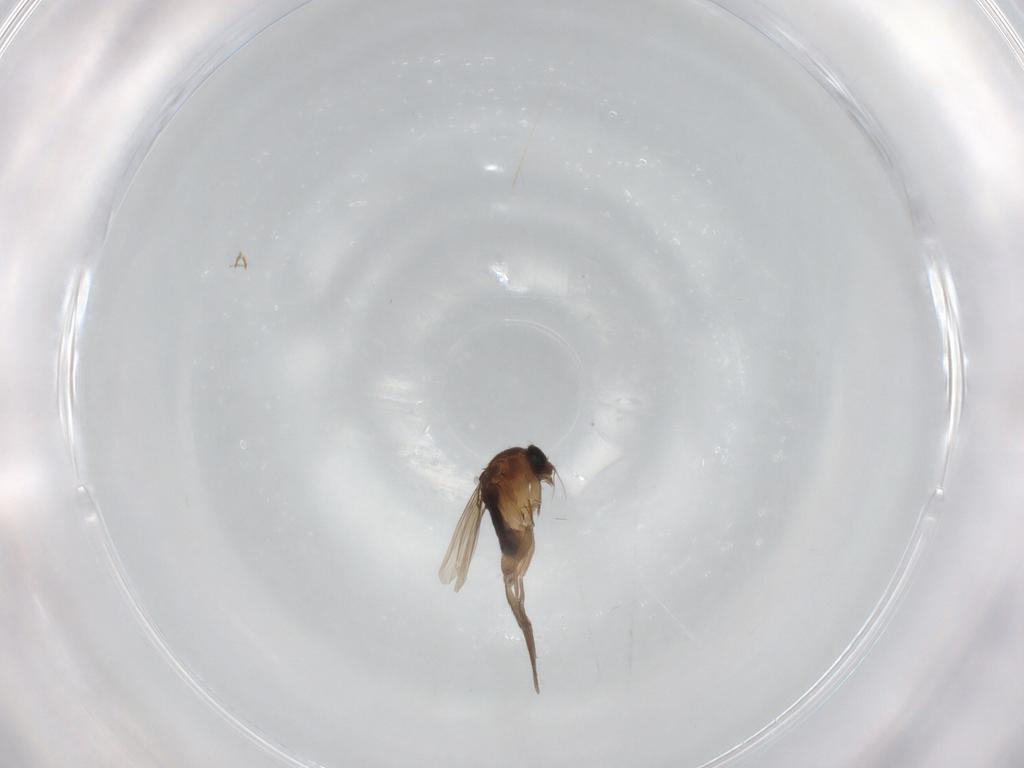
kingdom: Animalia
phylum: Arthropoda
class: Insecta
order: Diptera
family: Phoridae
